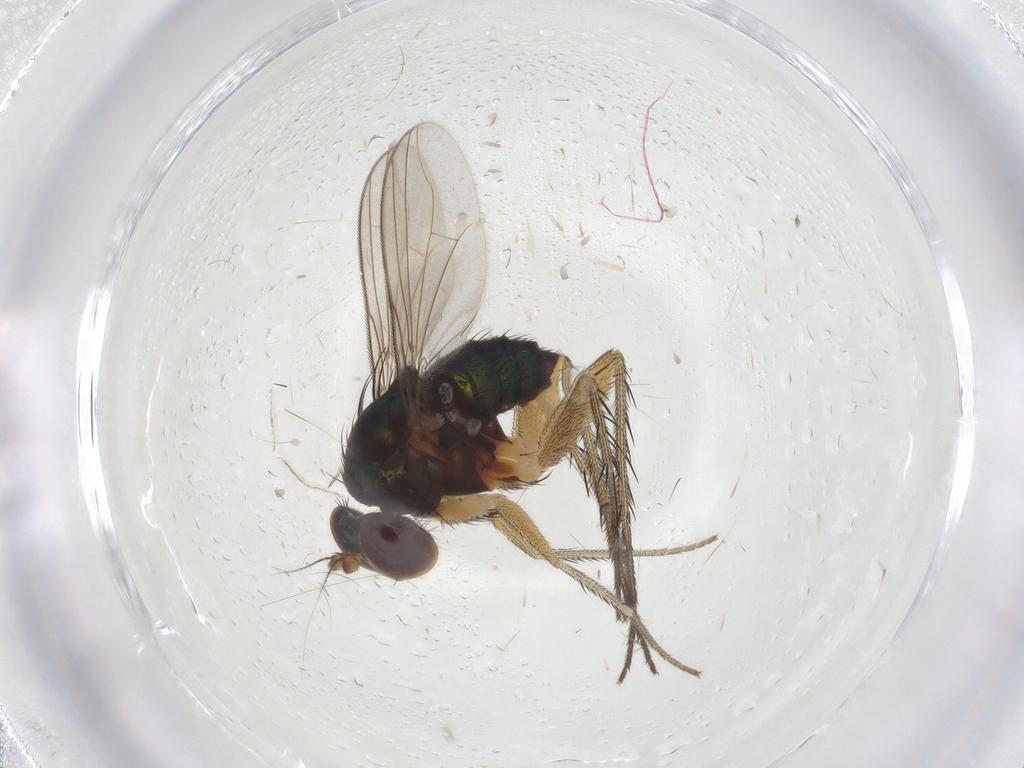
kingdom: Animalia
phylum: Arthropoda
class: Insecta
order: Diptera
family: Dolichopodidae
